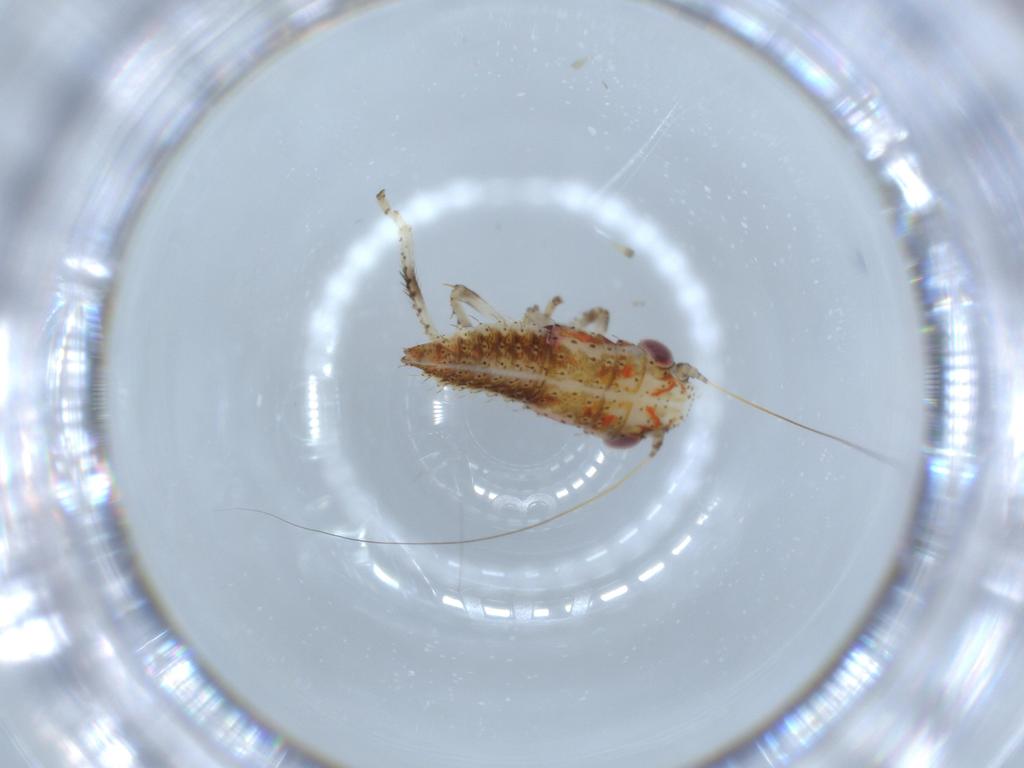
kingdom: Animalia
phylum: Arthropoda
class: Insecta
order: Hemiptera
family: Cicadellidae
